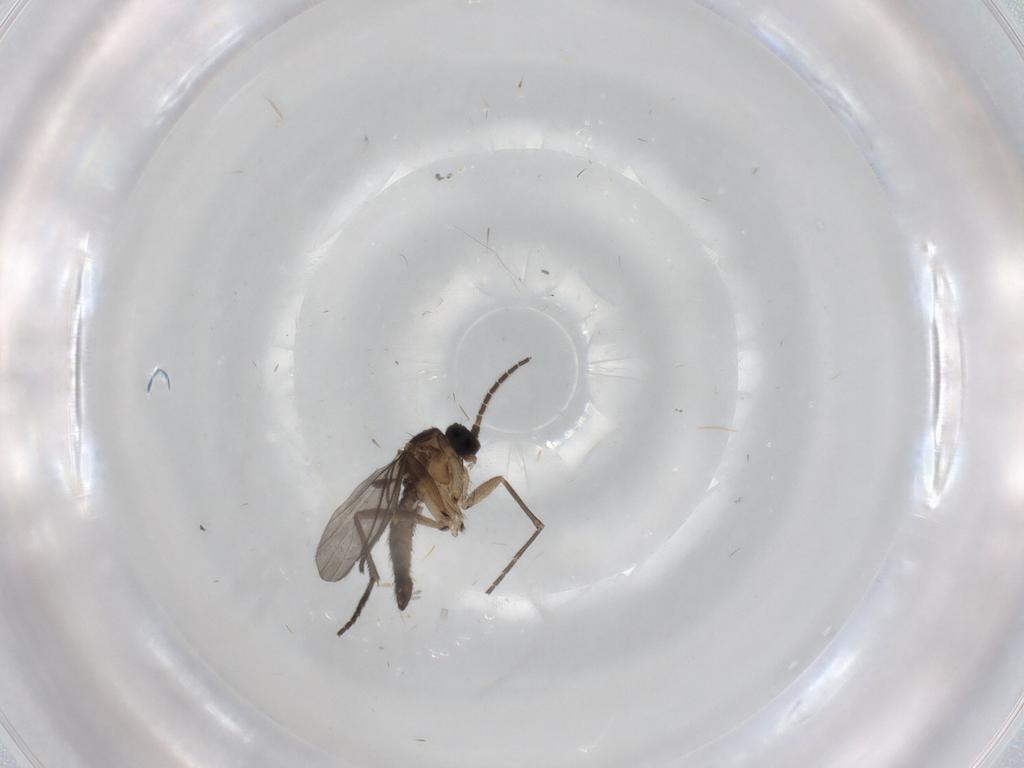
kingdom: Animalia
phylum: Arthropoda
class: Insecta
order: Diptera
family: Sciaridae
